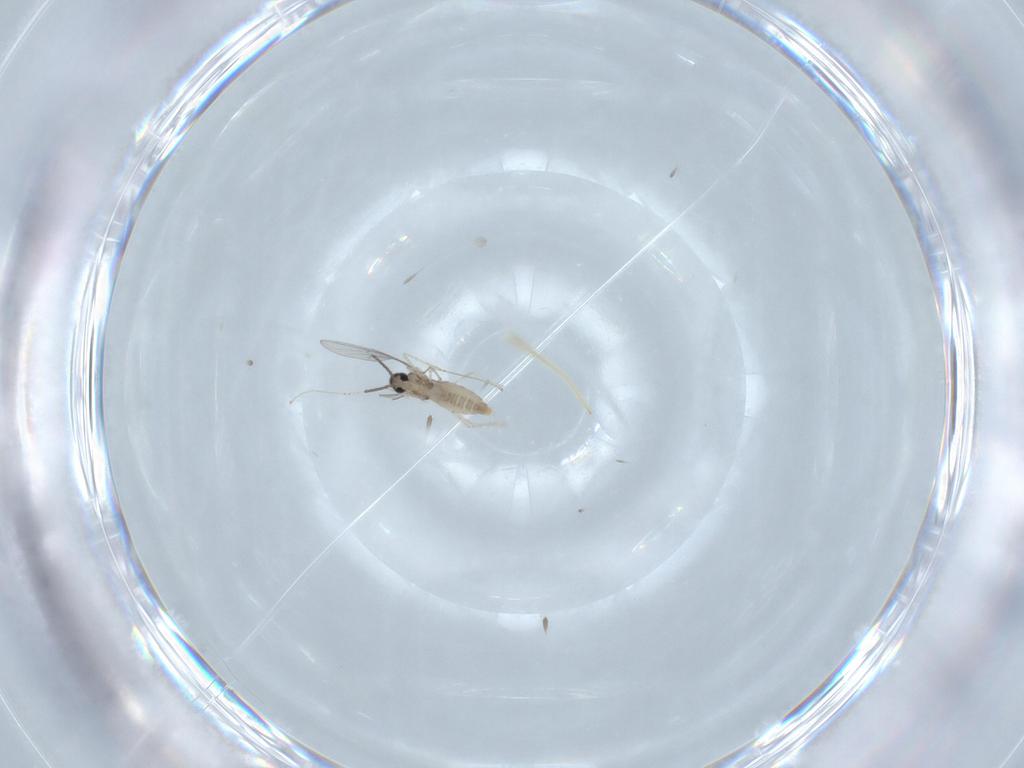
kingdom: Animalia
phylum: Arthropoda
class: Insecta
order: Diptera
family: Cecidomyiidae
